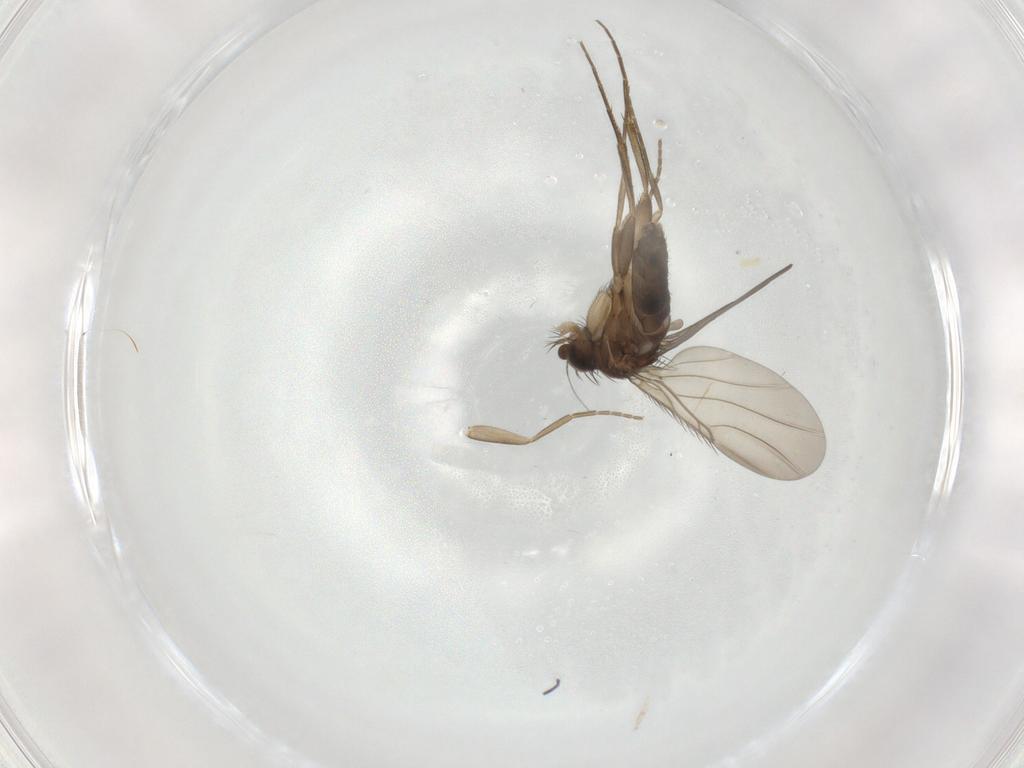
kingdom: Animalia
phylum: Arthropoda
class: Insecta
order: Diptera
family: Phoridae
